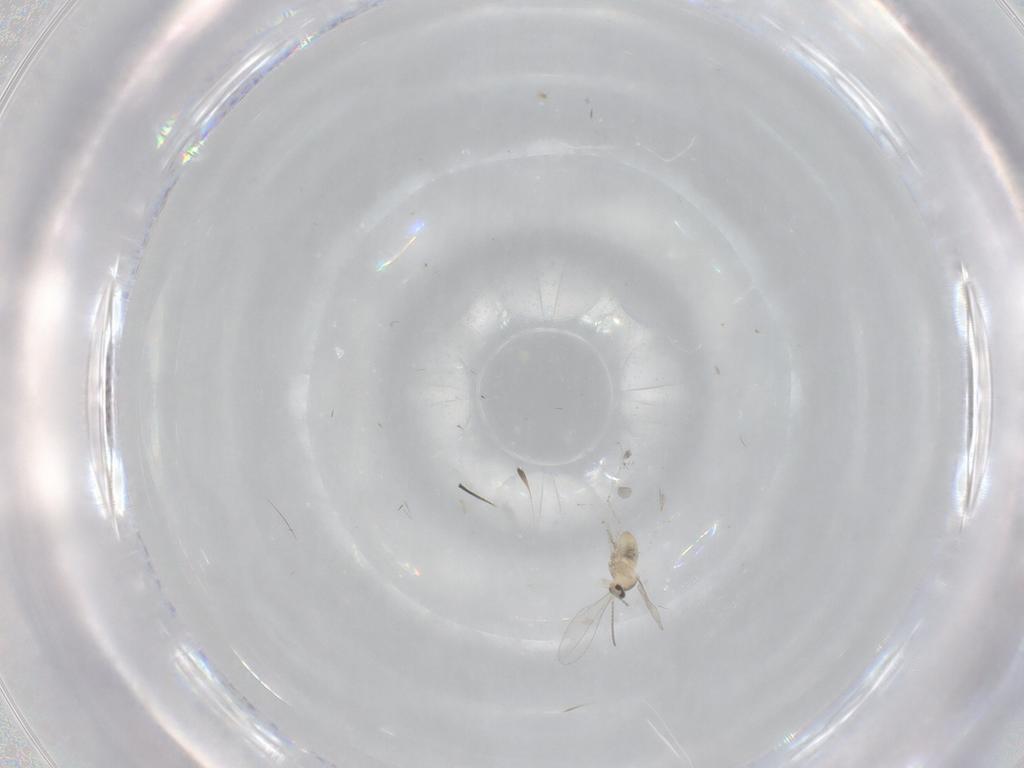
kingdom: Animalia
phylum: Arthropoda
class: Insecta
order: Diptera
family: Cecidomyiidae
